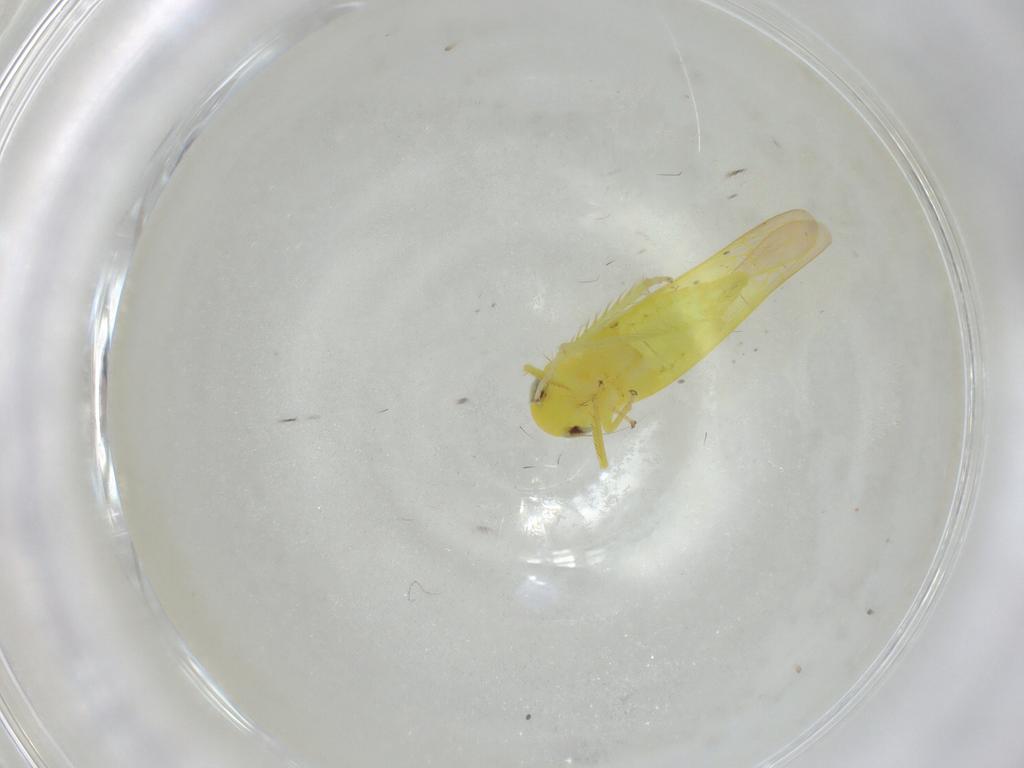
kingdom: Animalia
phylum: Arthropoda
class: Insecta
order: Hemiptera
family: Cicadellidae
